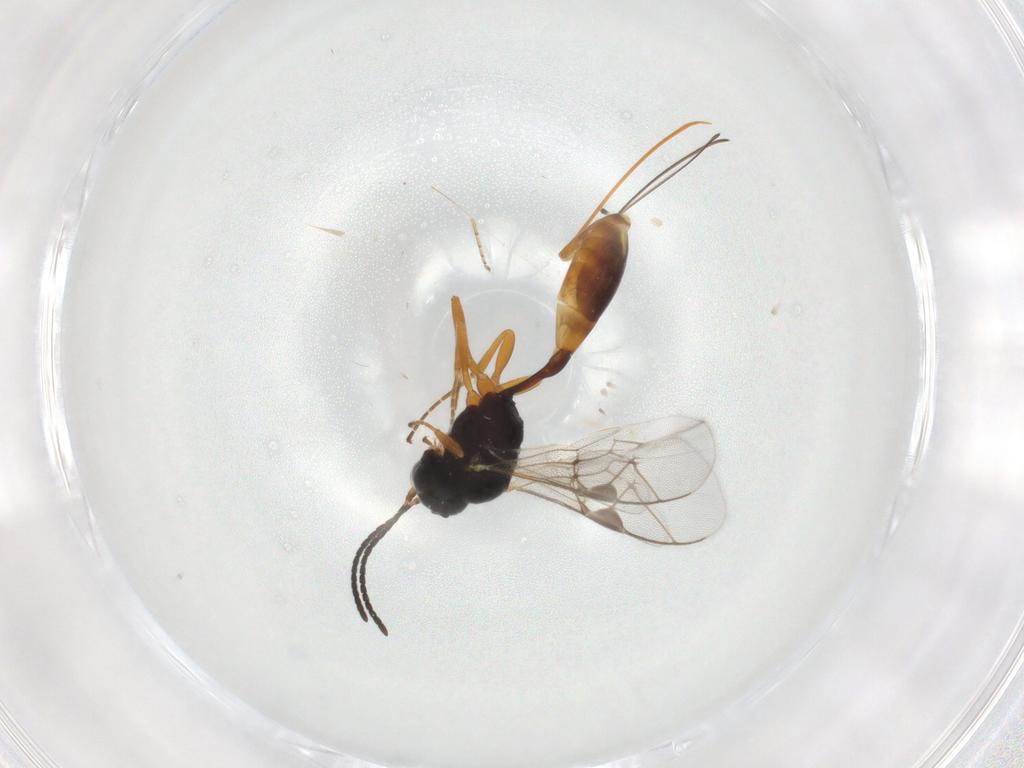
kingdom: Animalia
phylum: Arthropoda
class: Insecta
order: Hymenoptera
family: Ichneumonidae
